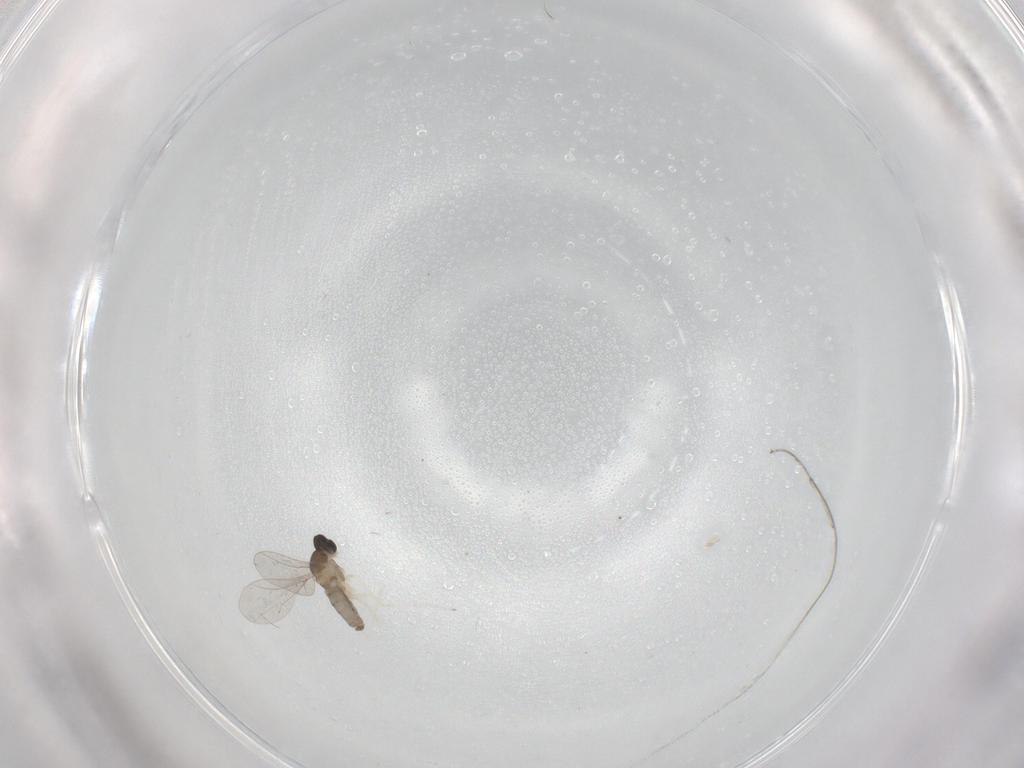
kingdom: Animalia
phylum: Arthropoda
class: Insecta
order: Diptera
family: Cecidomyiidae
